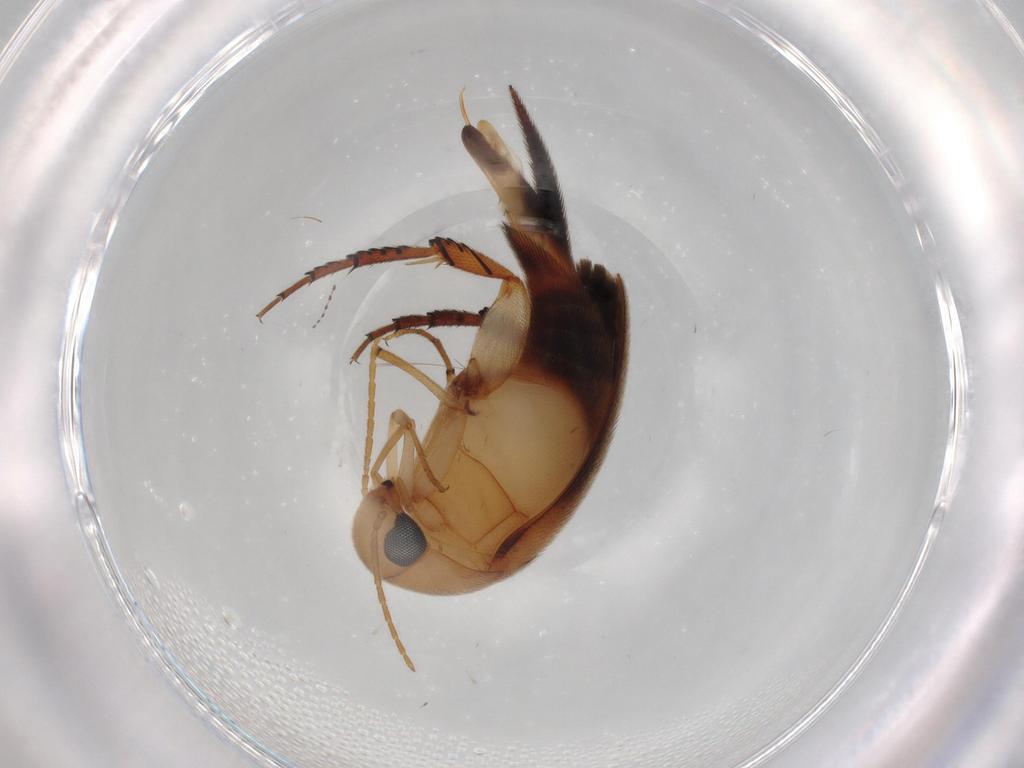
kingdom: Animalia
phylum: Arthropoda
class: Insecta
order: Coleoptera
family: Mordellidae
